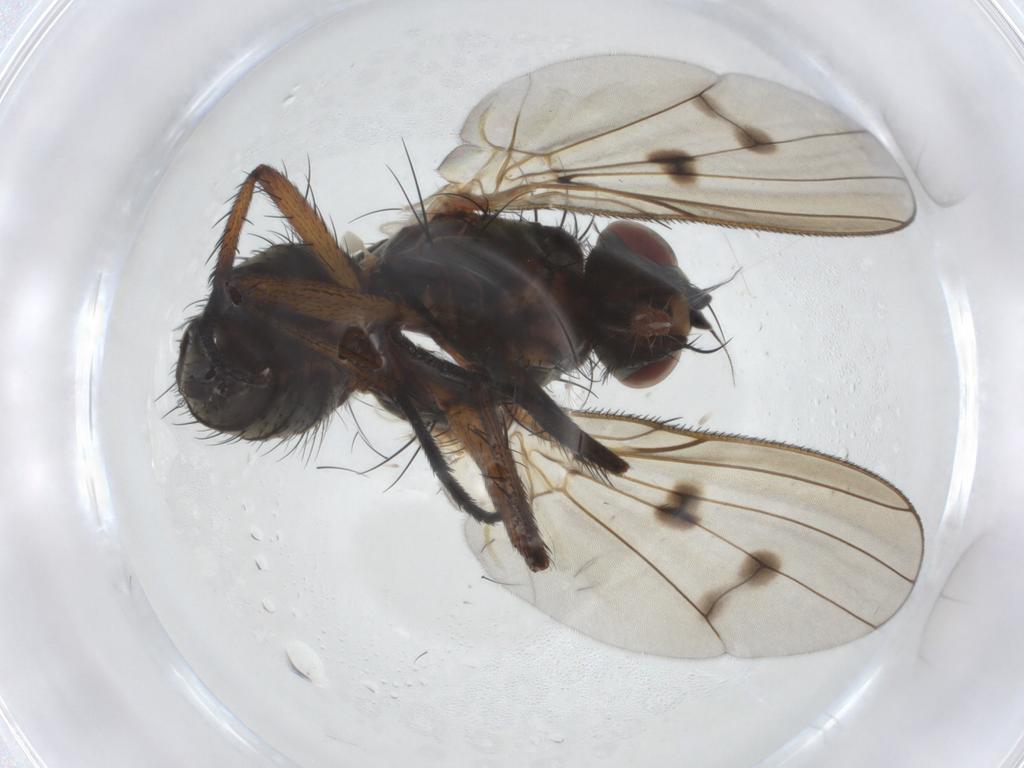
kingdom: Animalia
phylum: Arthropoda
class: Insecta
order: Diptera
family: Anthomyiidae
